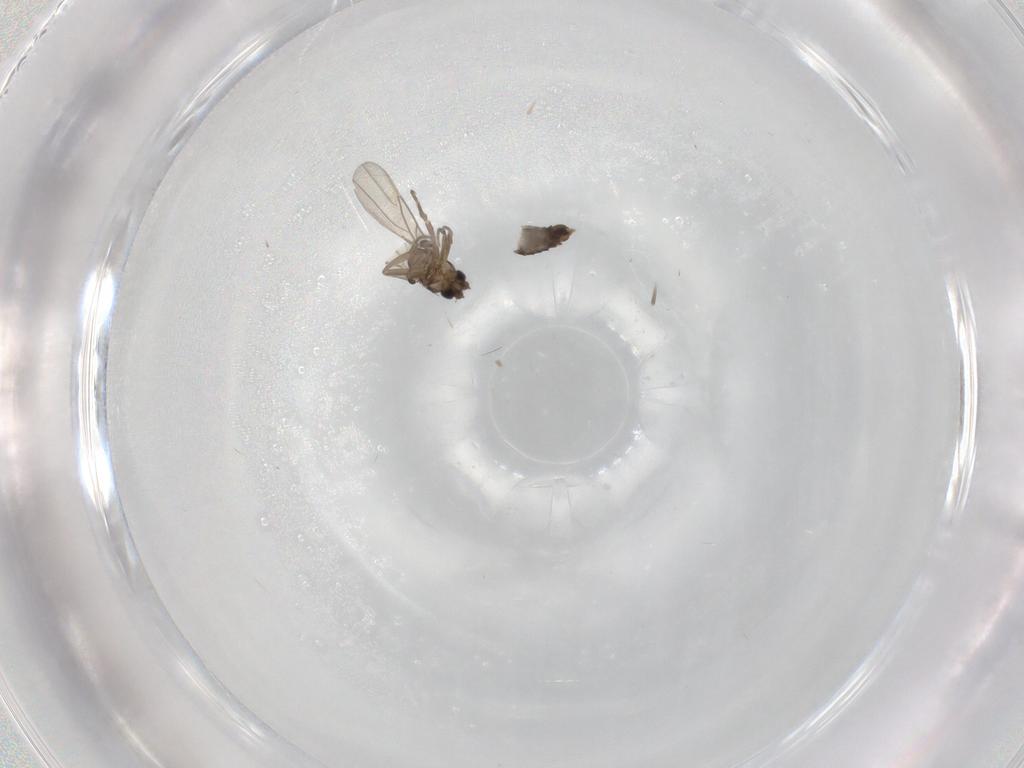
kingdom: Animalia
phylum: Arthropoda
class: Insecta
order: Diptera
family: Phoridae
